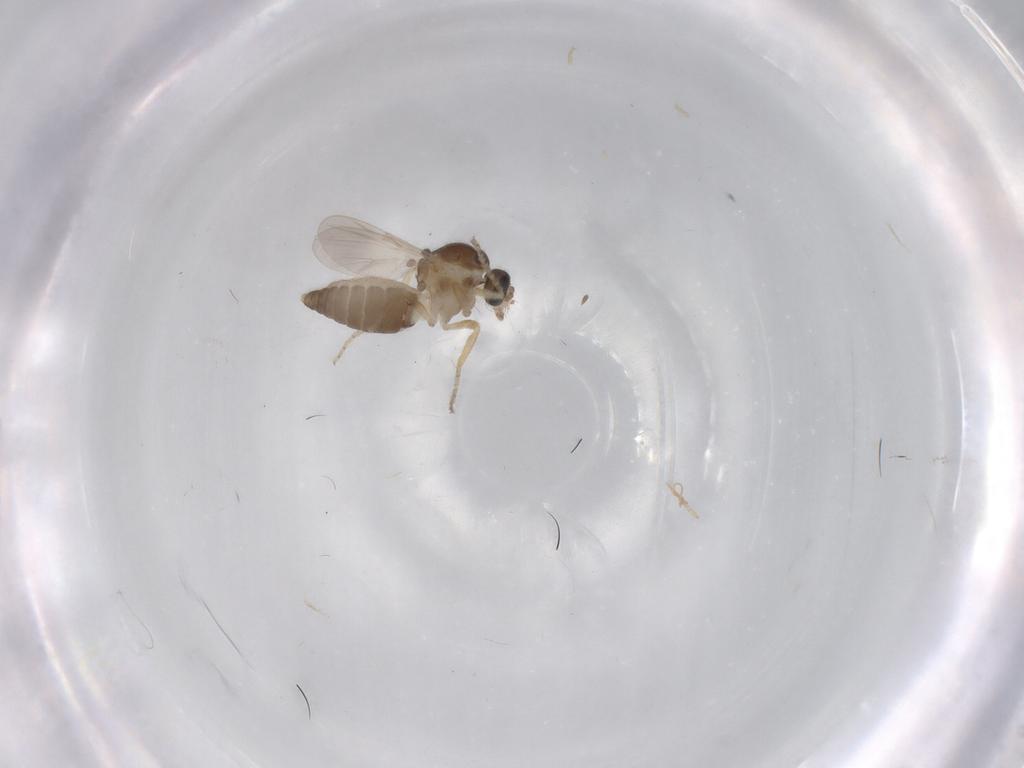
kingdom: Animalia
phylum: Arthropoda
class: Insecta
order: Diptera
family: Ceratopogonidae
